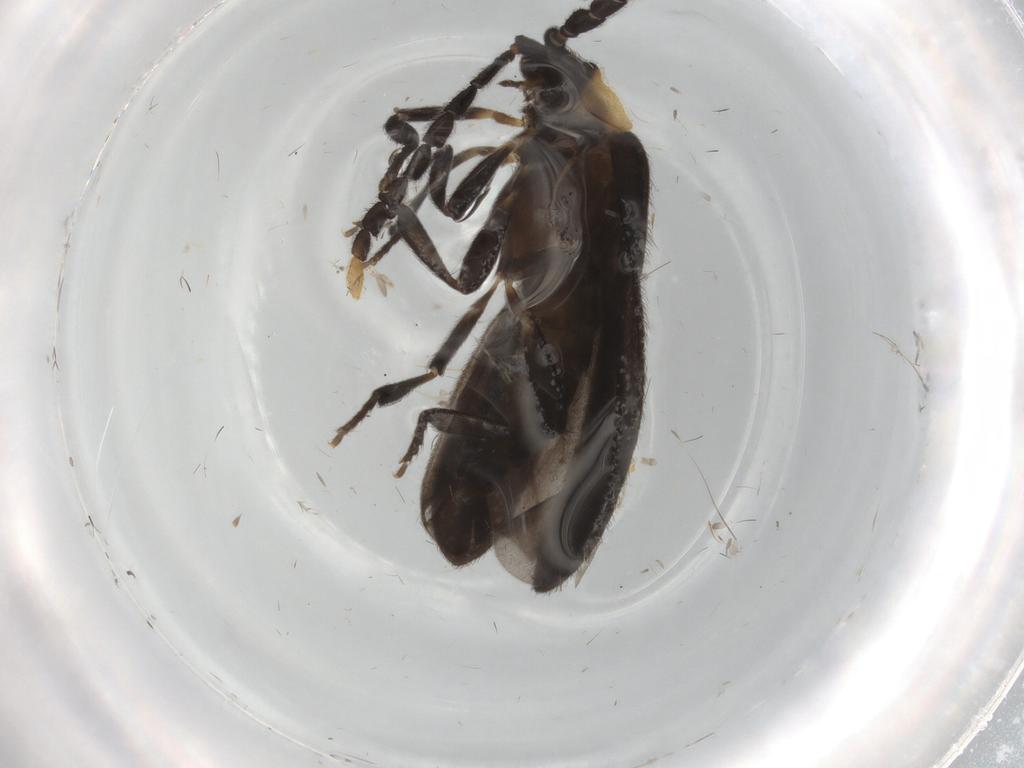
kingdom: Animalia
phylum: Arthropoda
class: Insecta
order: Coleoptera
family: Lycidae
